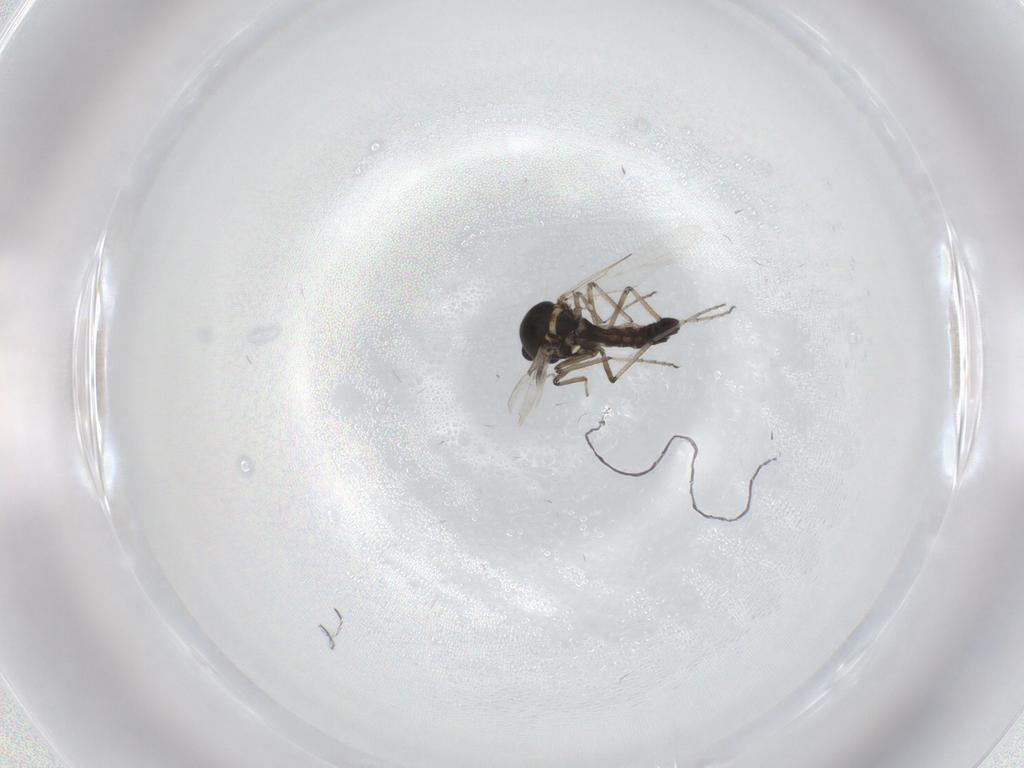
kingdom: Animalia
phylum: Arthropoda
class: Insecta
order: Diptera
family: Ceratopogonidae
